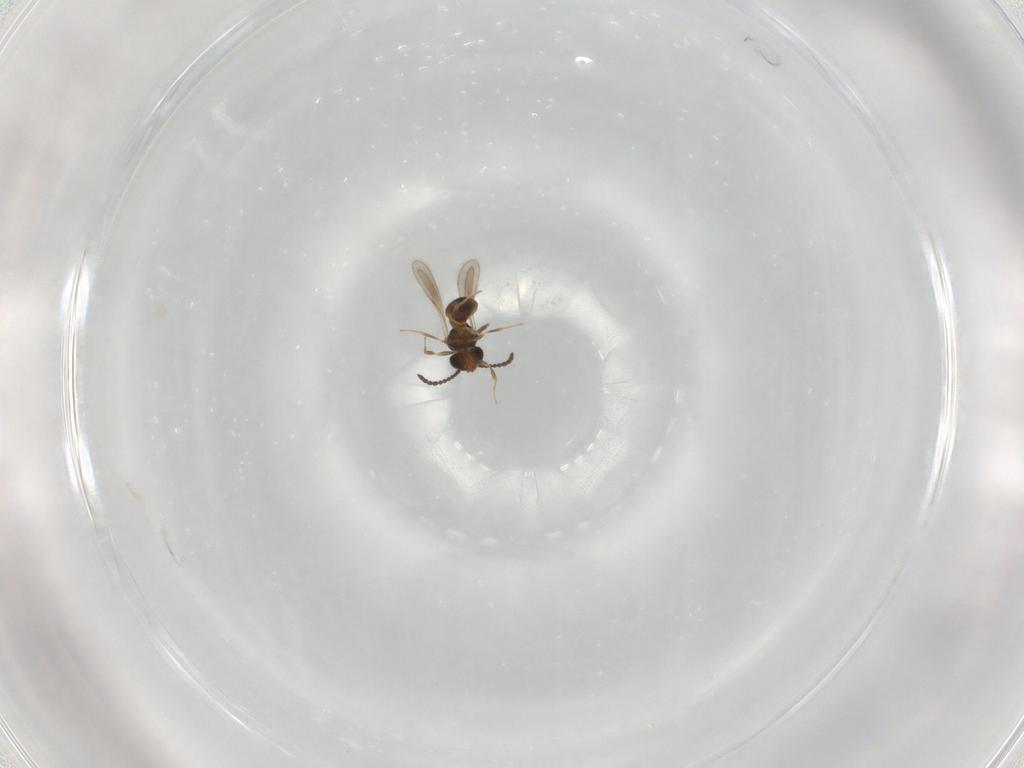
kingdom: Animalia
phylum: Arthropoda
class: Insecta
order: Hymenoptera
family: Scelionidae
